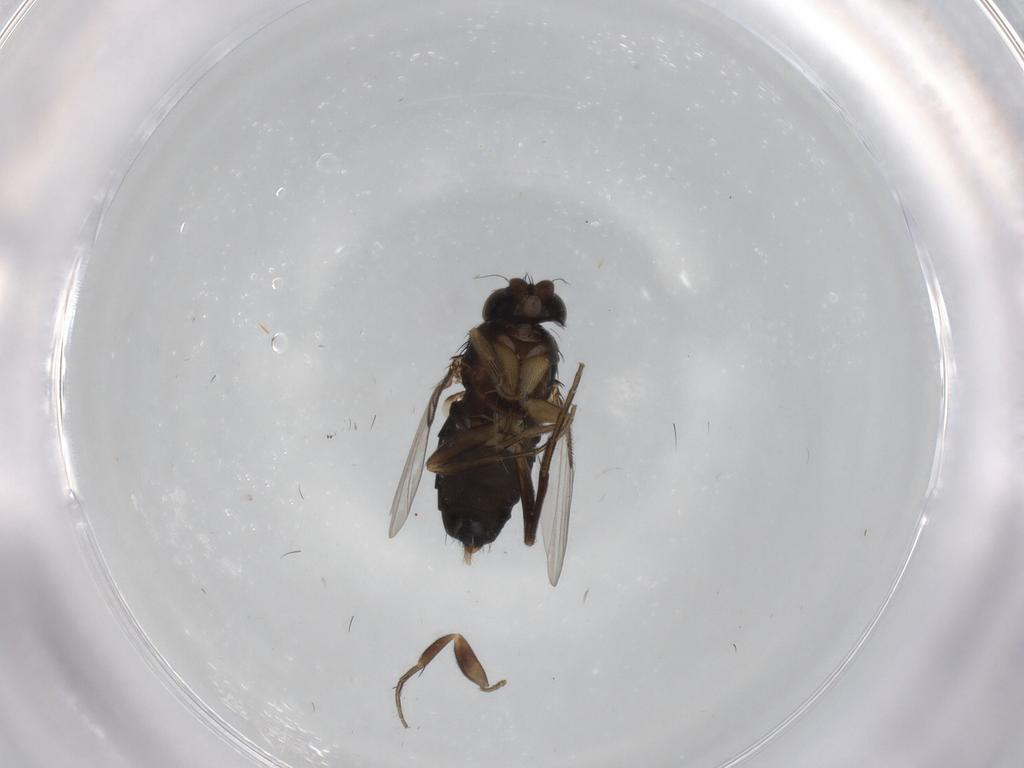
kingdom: Animalia
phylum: Arthropoda
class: Insecta
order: Diptera
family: Phoridae
